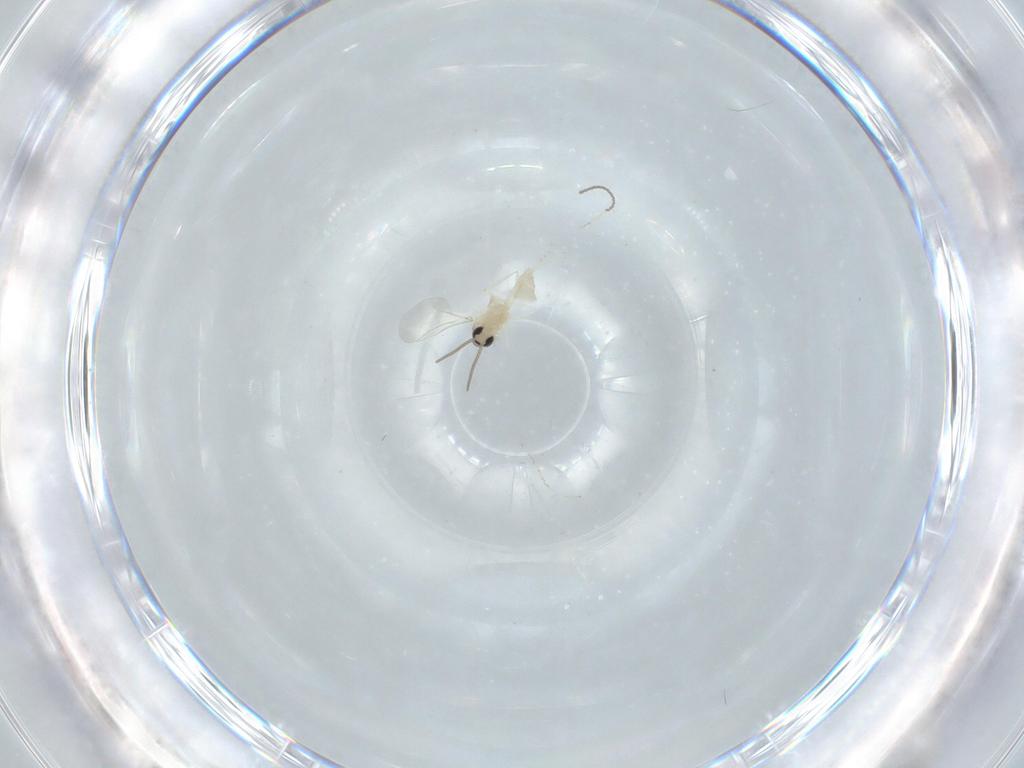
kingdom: Animalia
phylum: Arthropoda
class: Insecta
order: Diptera
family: Cecidomyiidae
